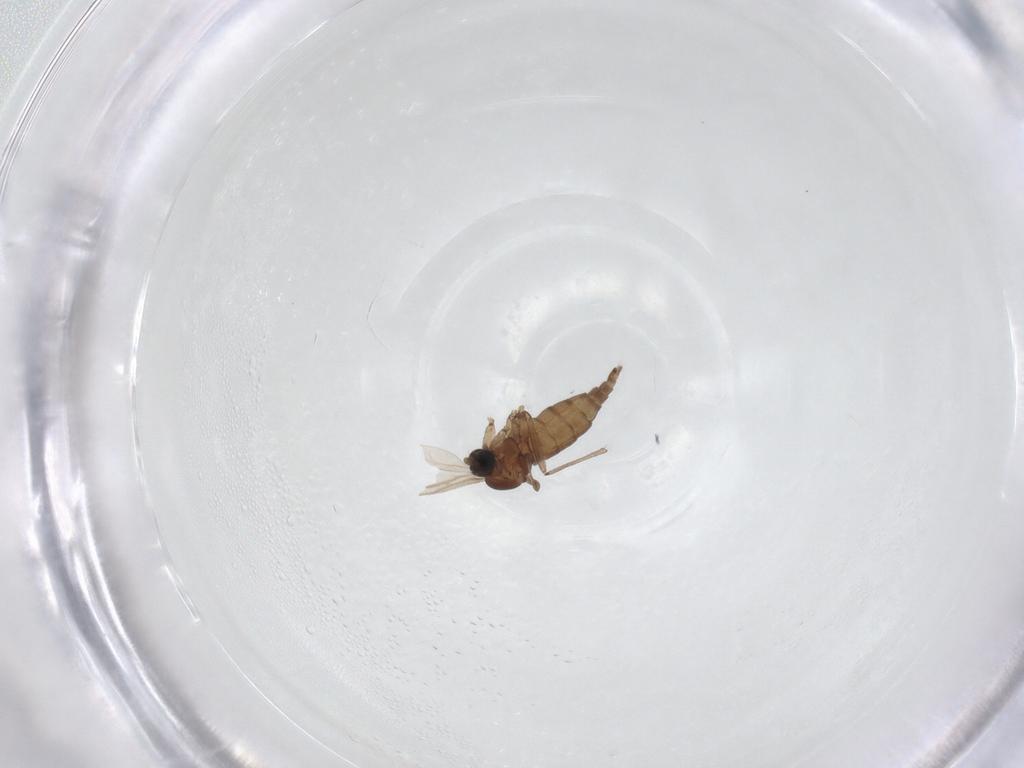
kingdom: Animalia
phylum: Arthropoda
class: Insecta
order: Diptera
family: Sciaridae
